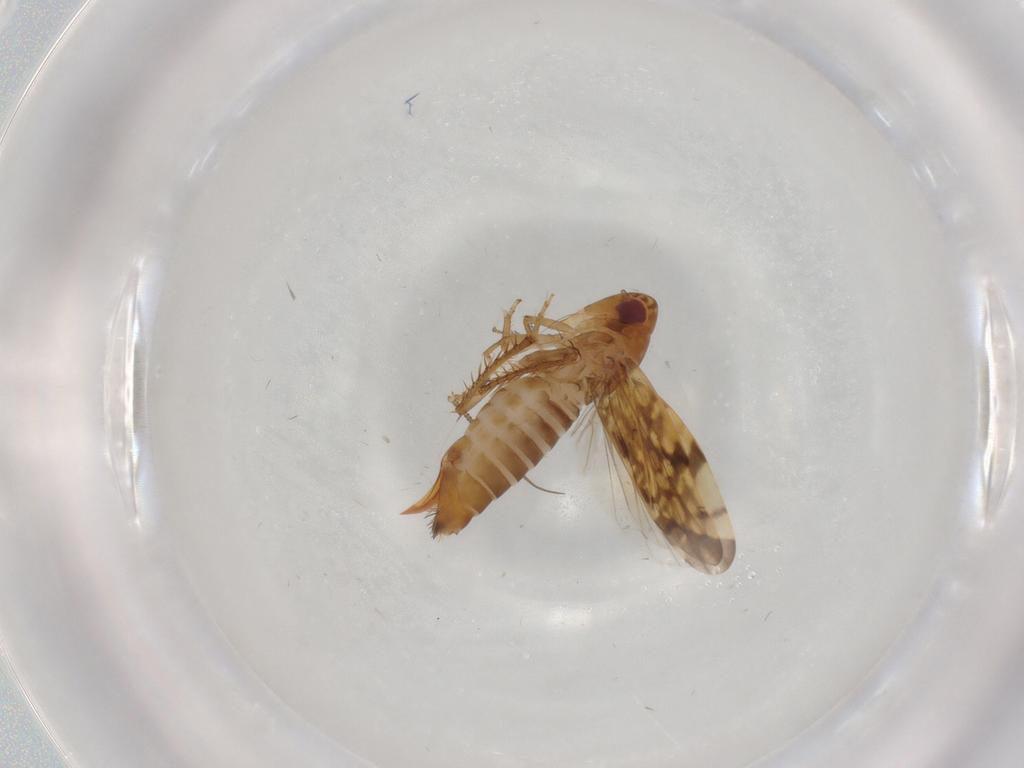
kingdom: Animalia
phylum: Arthropoda
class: Insecta
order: Hemiptera
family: Cicadellidae
